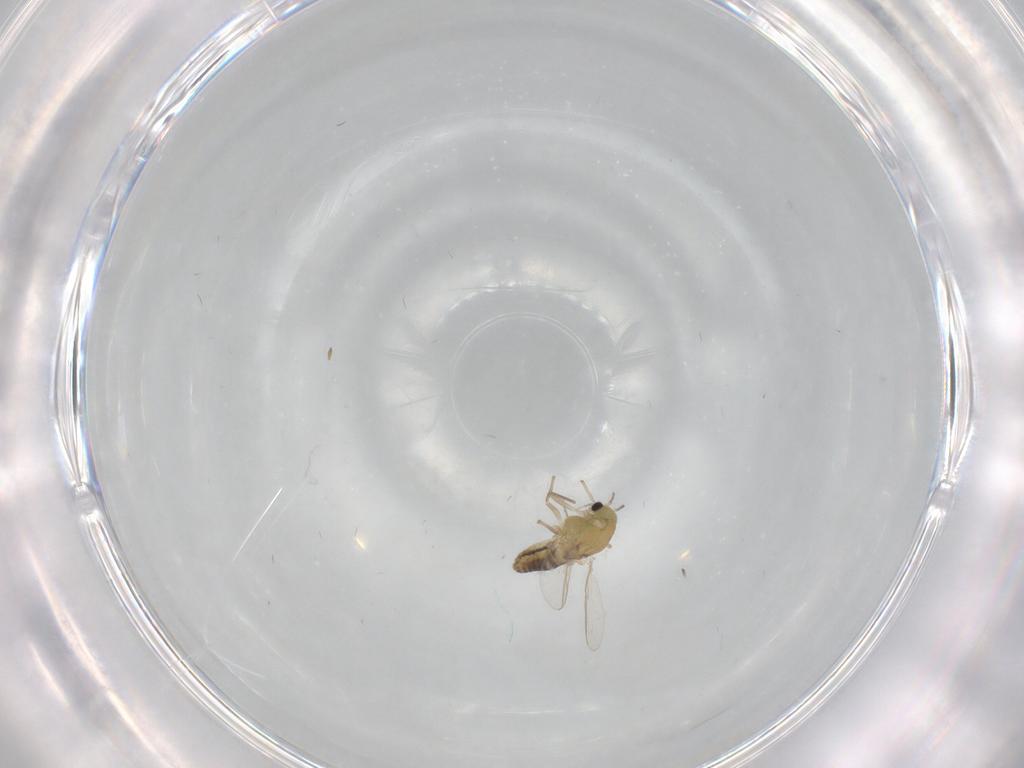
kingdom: Animalia
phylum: Arthropoda
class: Insecta
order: Diptera
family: Chironomidae
